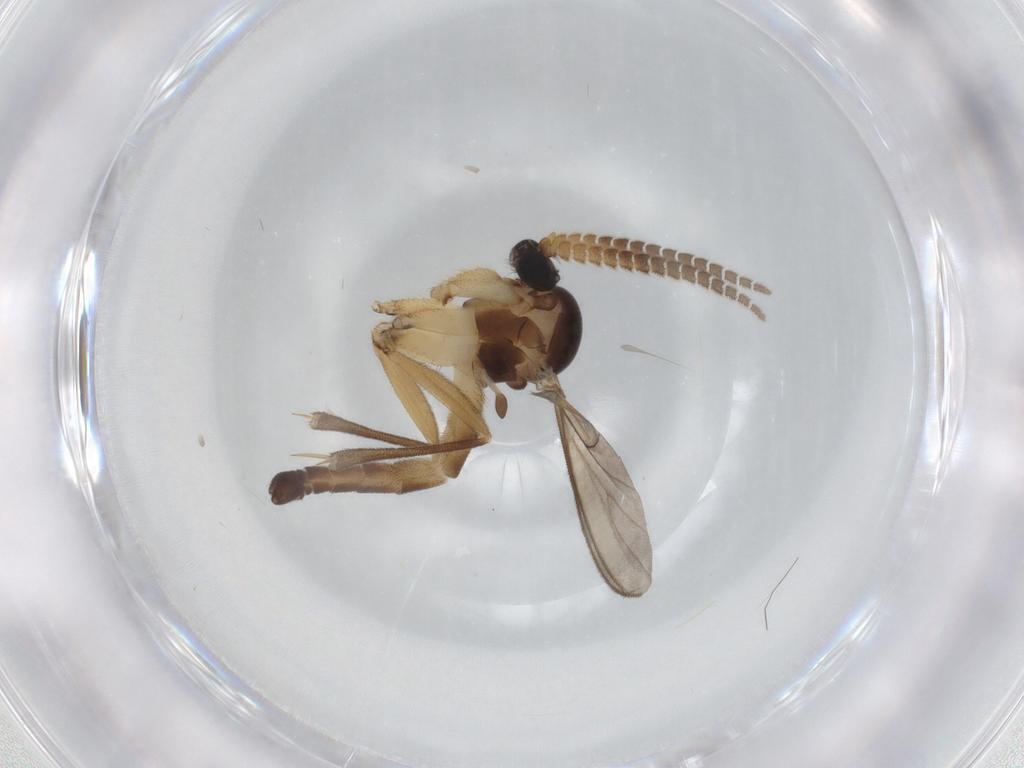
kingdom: Animalia
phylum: Arthropoda
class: Insecta
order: Diptera
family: Mycetophilidae
